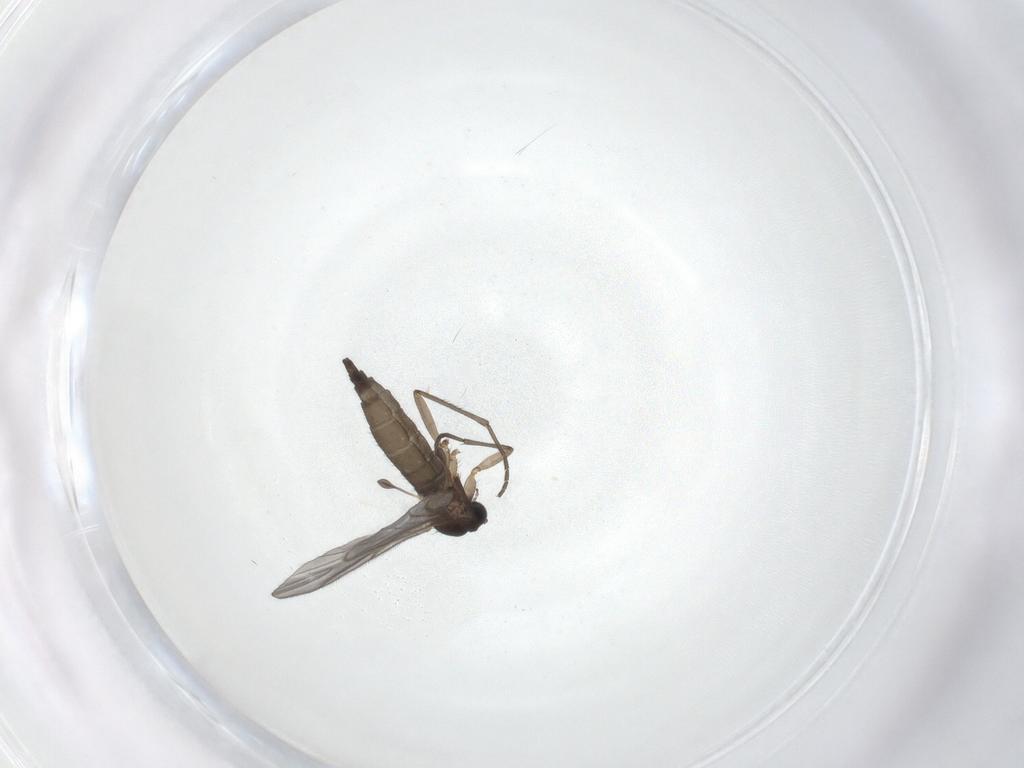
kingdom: Animalia
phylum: Arthropoda
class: Insecta
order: Diptera
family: Sciaridae
